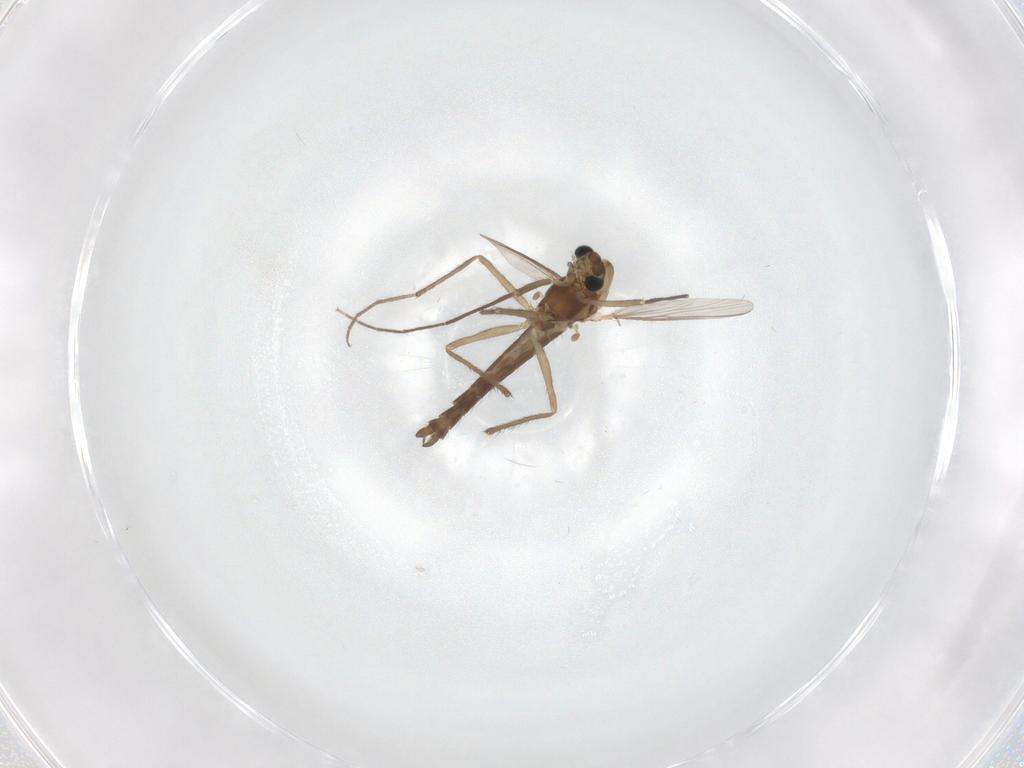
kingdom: Animalia
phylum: Arthropoda
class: Insecta
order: Diptera
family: Chironomidae
